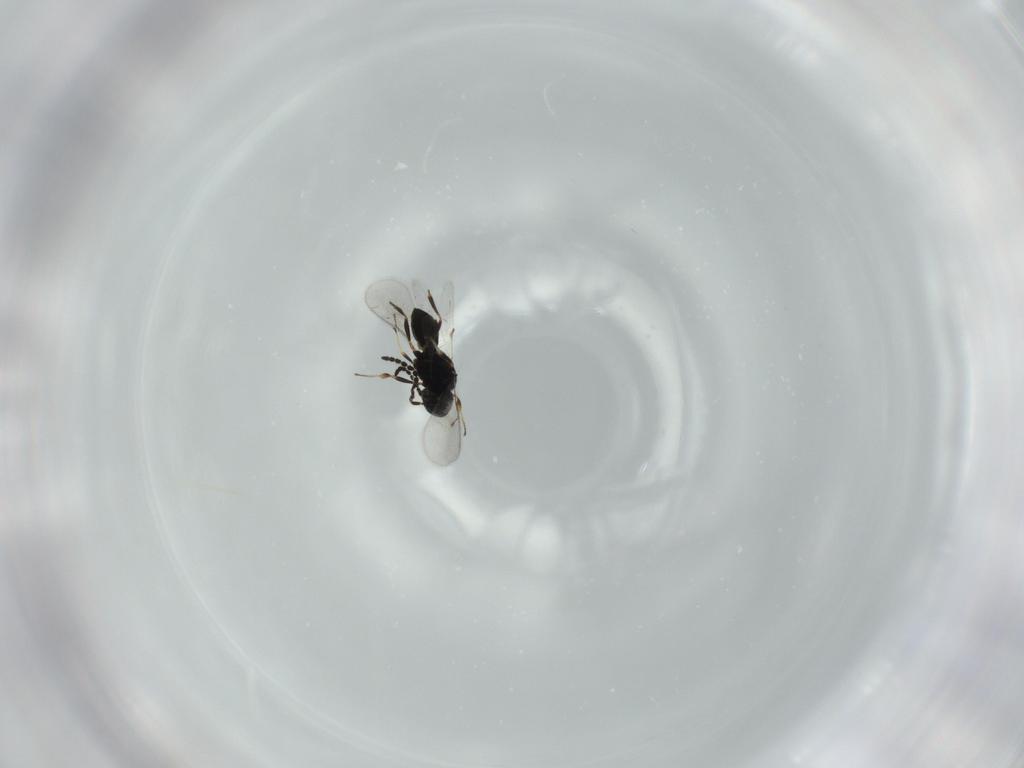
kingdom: Animalia
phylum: Arthropoda
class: Insecta
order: Hymenoptera
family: Scelionidae
